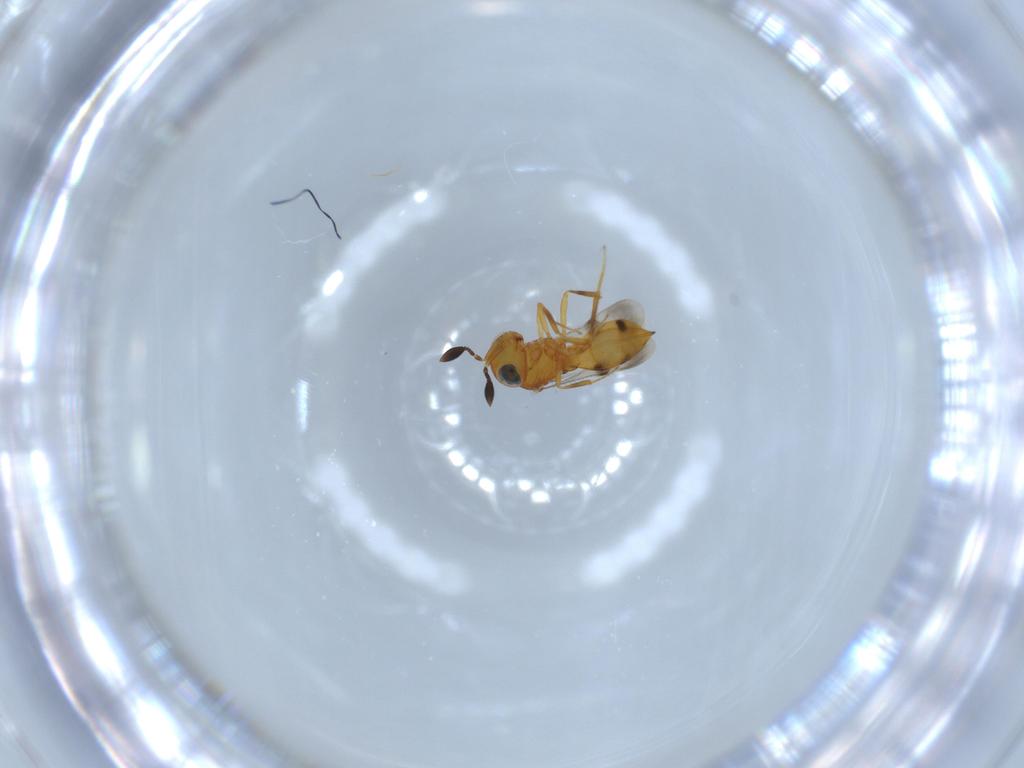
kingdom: Animalia
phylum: Arthropoda
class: Insecta
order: Hymenoptera
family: Scelionidae
